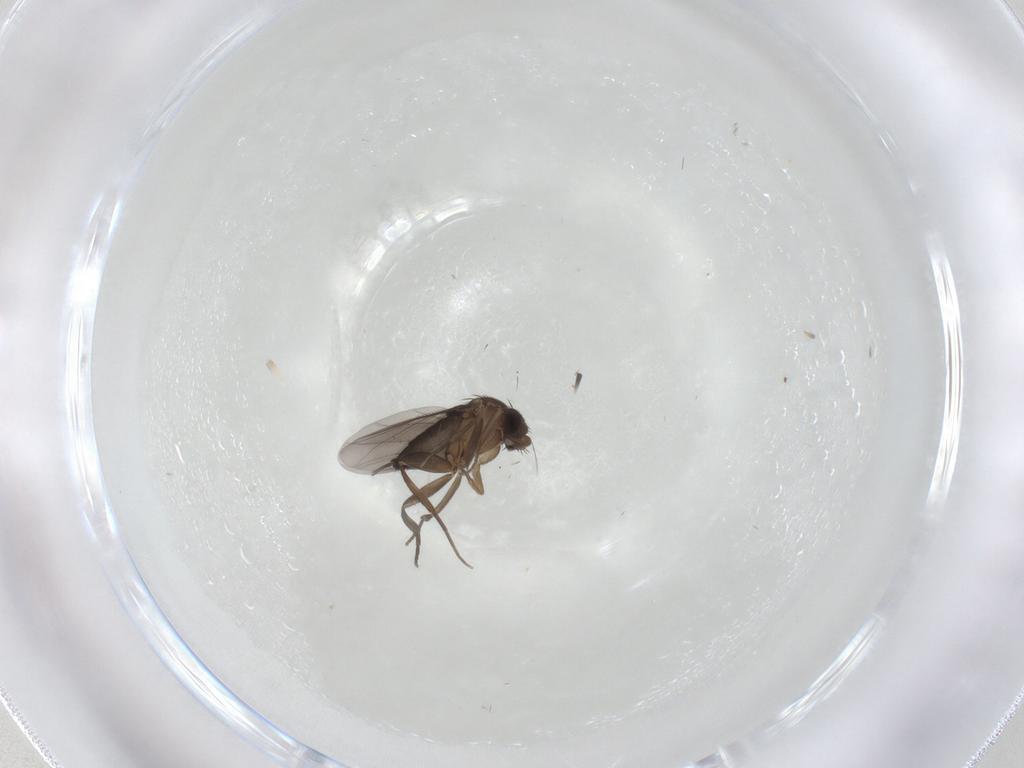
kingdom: Animalia
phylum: Arthropoda
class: Insecta
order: Diptera
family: Phoridae
